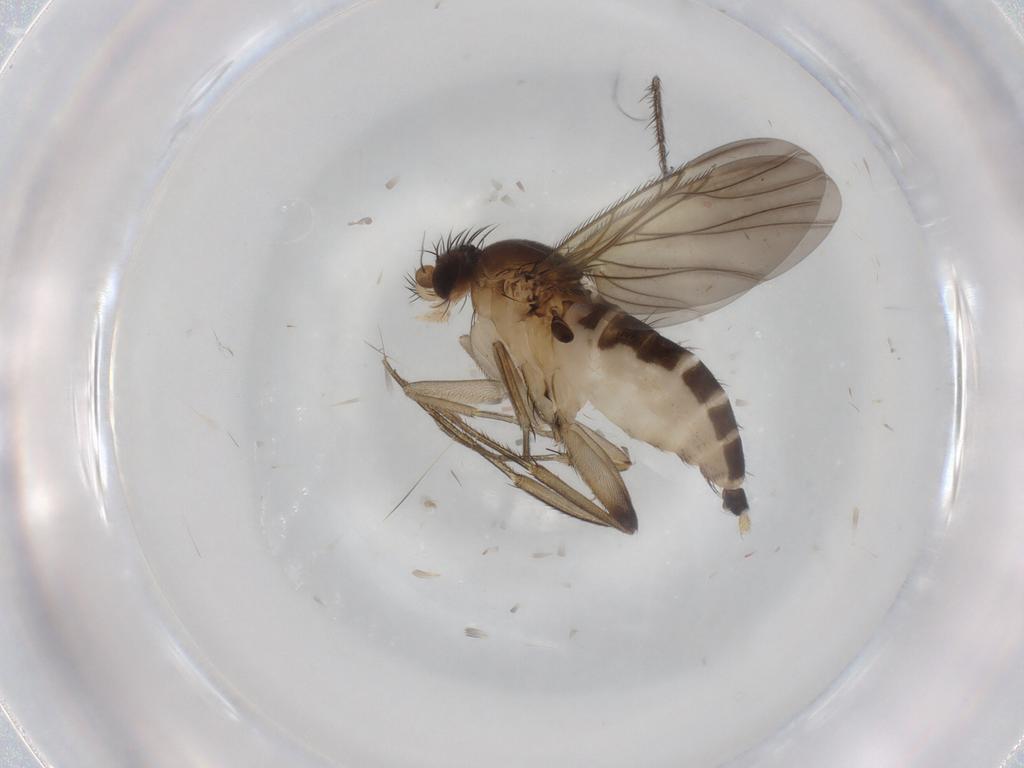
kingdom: Animalia
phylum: Arthropoda
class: Insecta
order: Diptera
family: Phoridae
